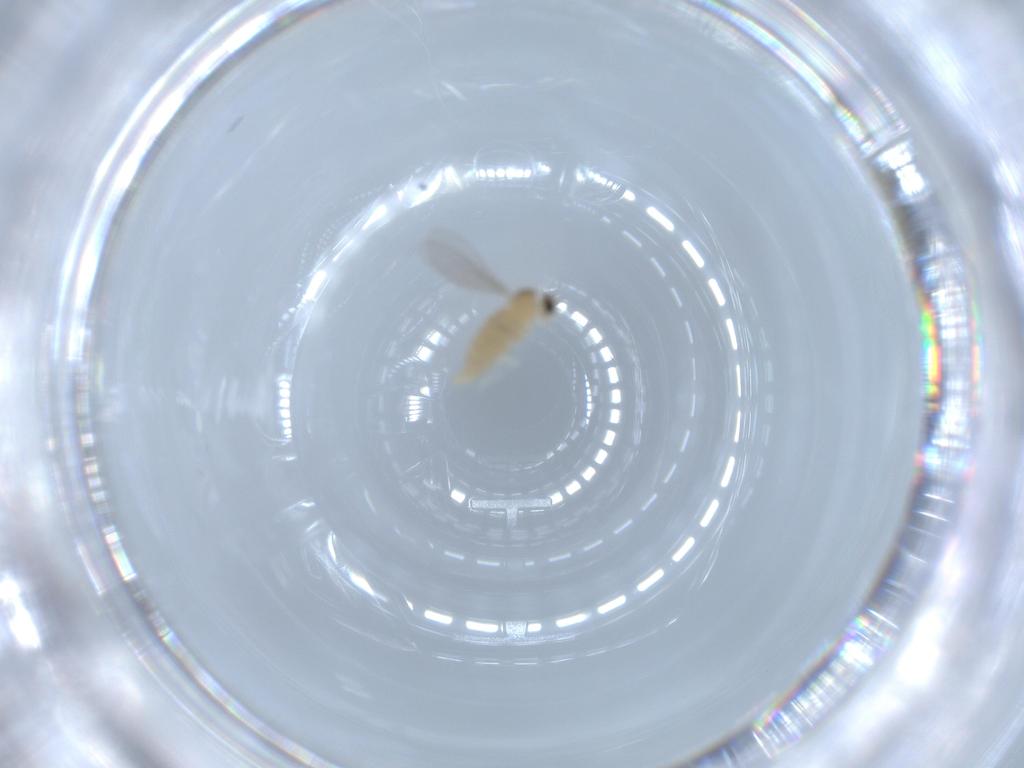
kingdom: Animalia
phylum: Arthropoda
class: Insecta
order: Diptera
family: Cecidomyiidae
